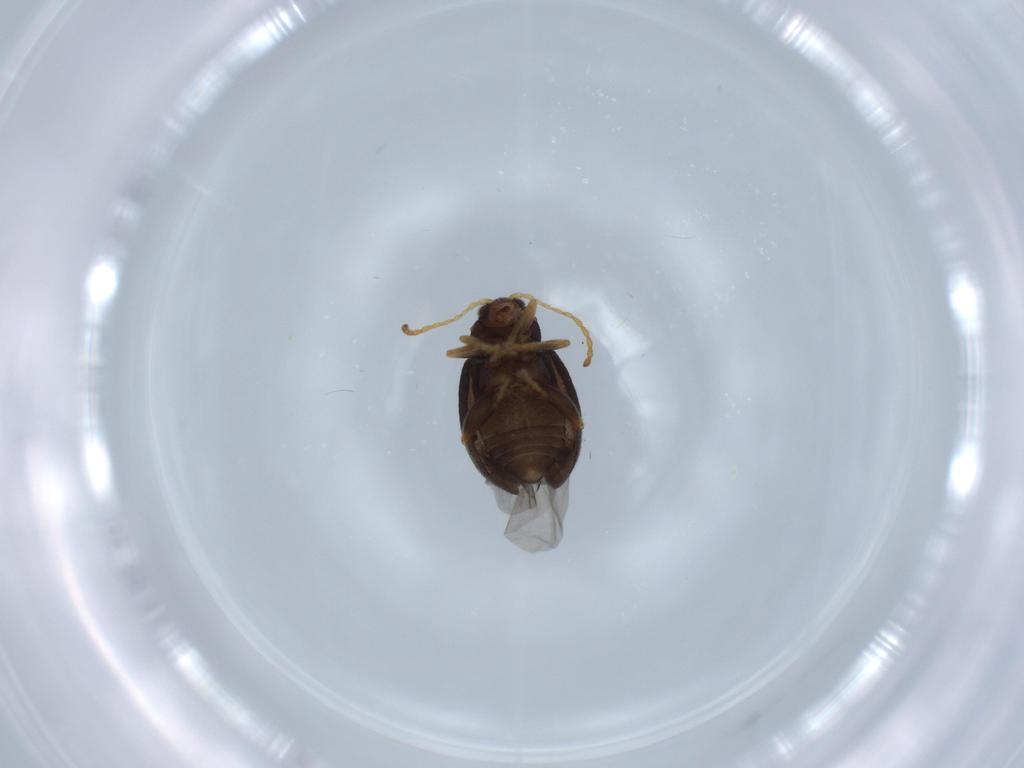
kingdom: Animalia
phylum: Arthropoda
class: Insecta
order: Coleoptera
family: Chrysomelidae
